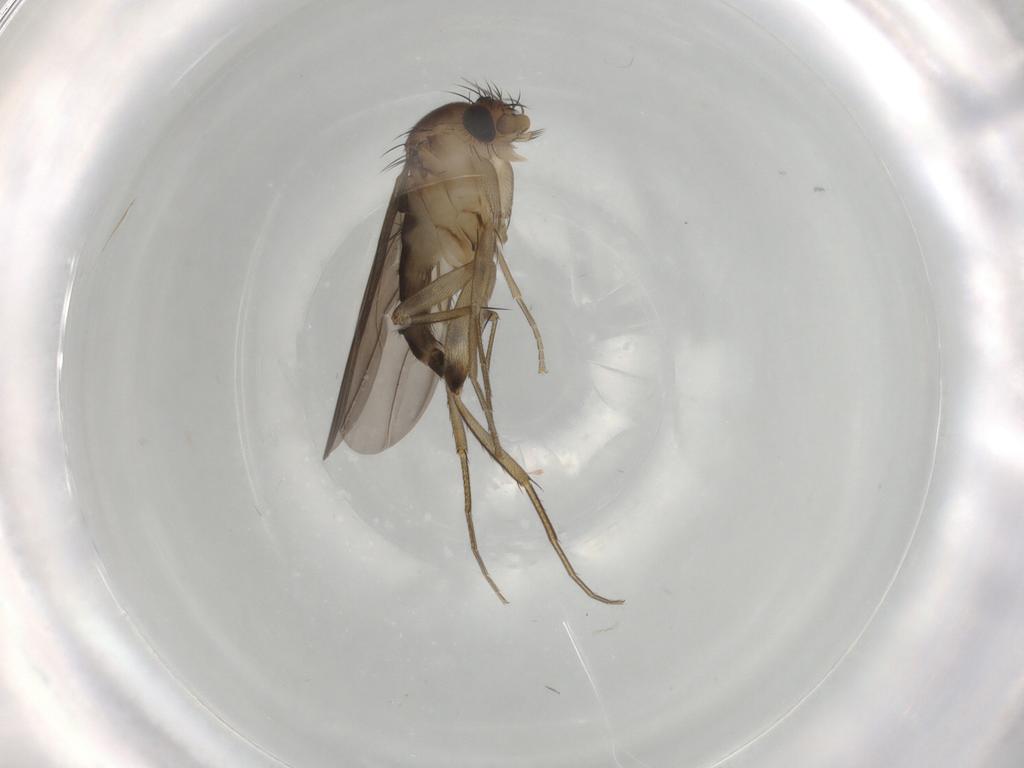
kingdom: Animalia
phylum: Arthropoda
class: Insecta
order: Diptera
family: Phoridae
